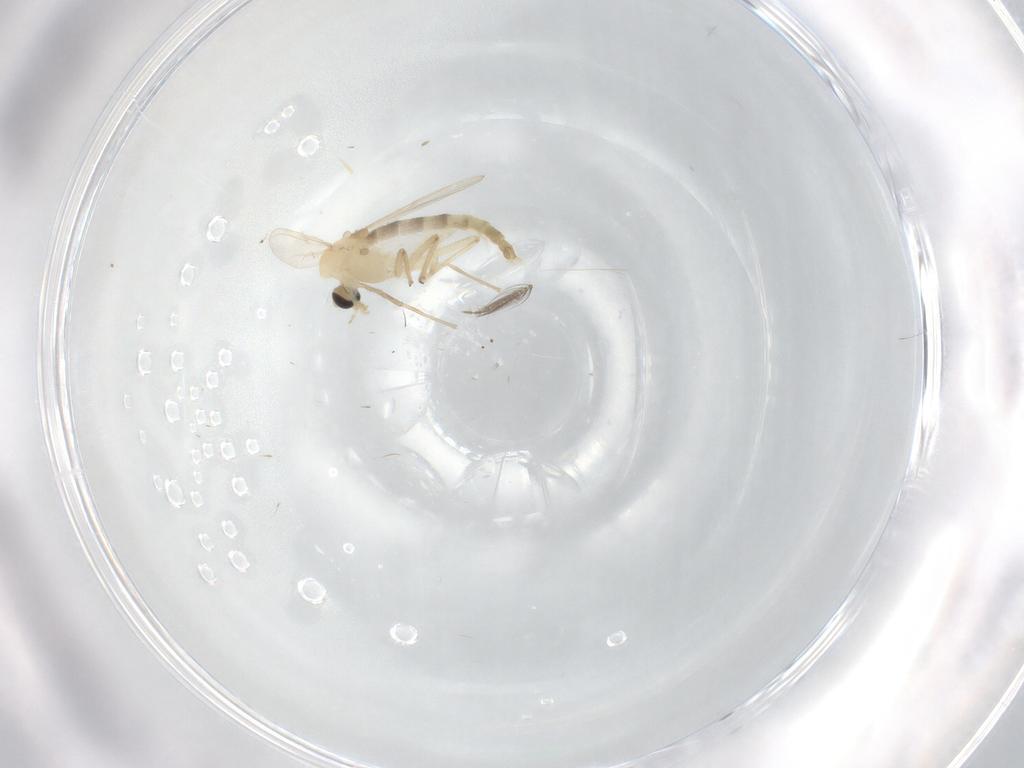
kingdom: Animalia
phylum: Arthropoda
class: Insecta
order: Diptera
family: Chironomidae
